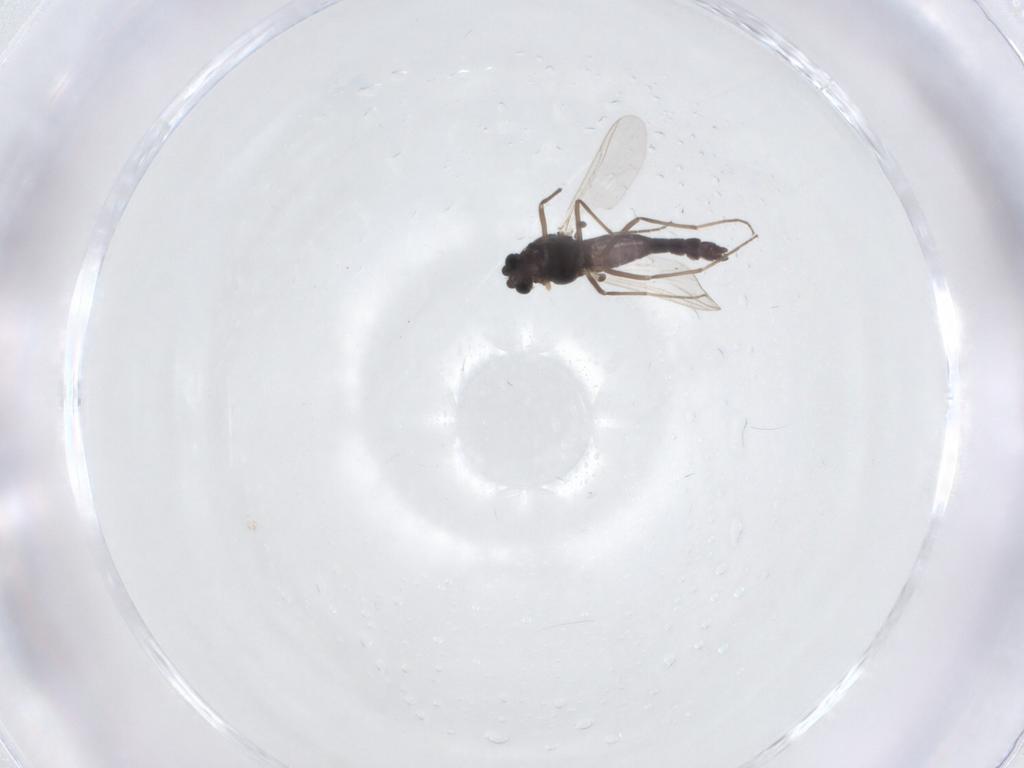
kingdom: Animalia
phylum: Arthropoda
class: Insecta
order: Diptera
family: Chironomidae
